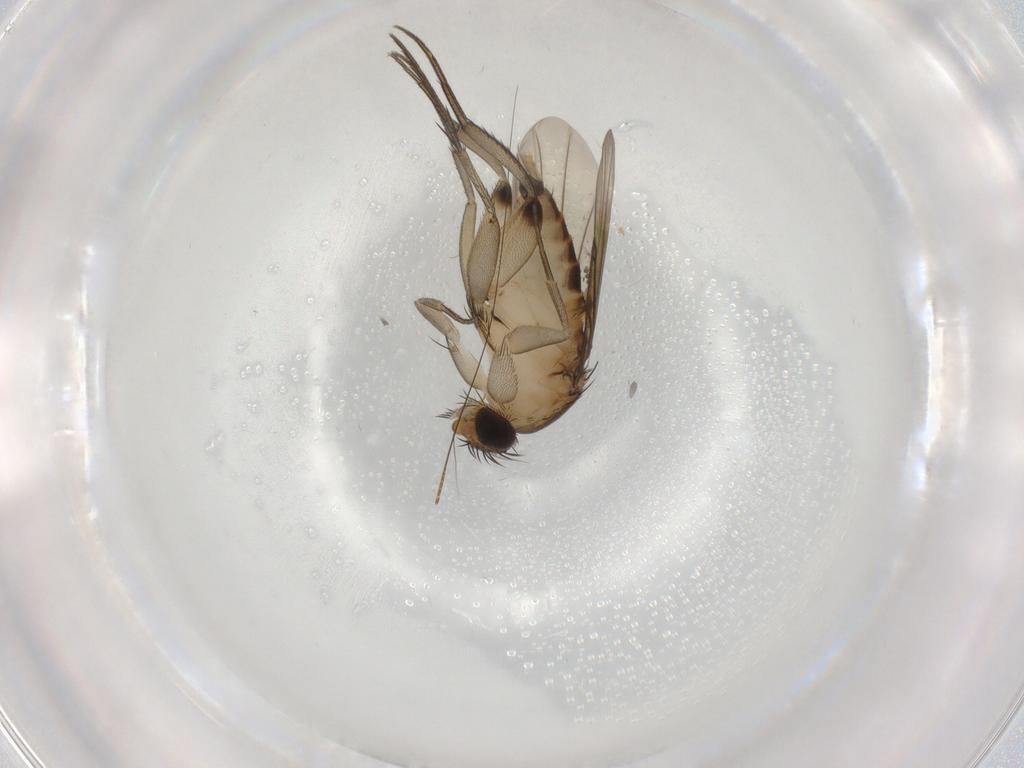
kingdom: Animalia
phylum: Arthropoda
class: Insecta
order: Diptera
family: Phoridae
